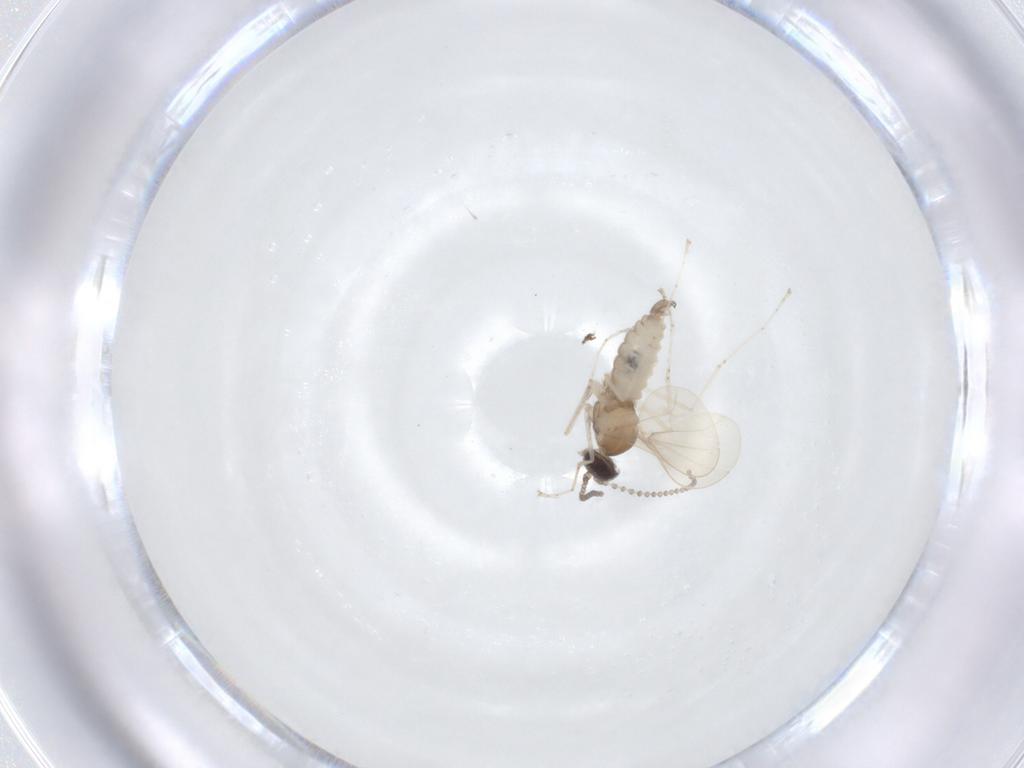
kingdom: Animalia
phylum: Arthropoda
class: Insecta
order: Diptera
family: Cecidomyiidae
